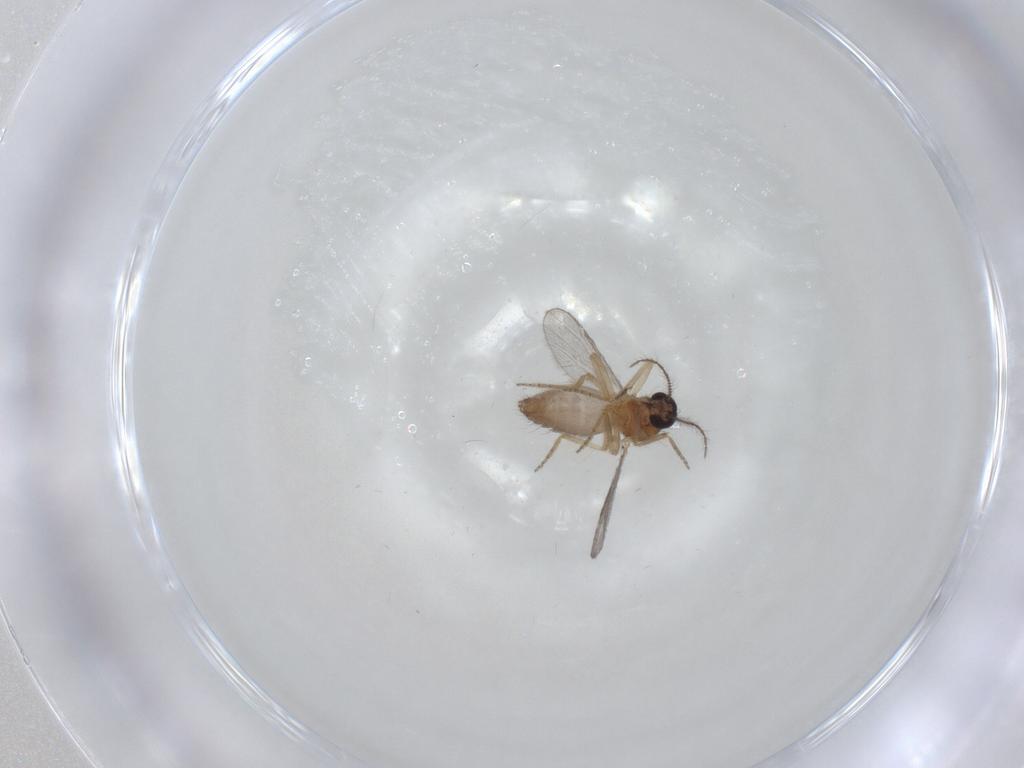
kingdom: Animalia
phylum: Arthropoda
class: Insecta
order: Diptera
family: Ceratopogonidae
